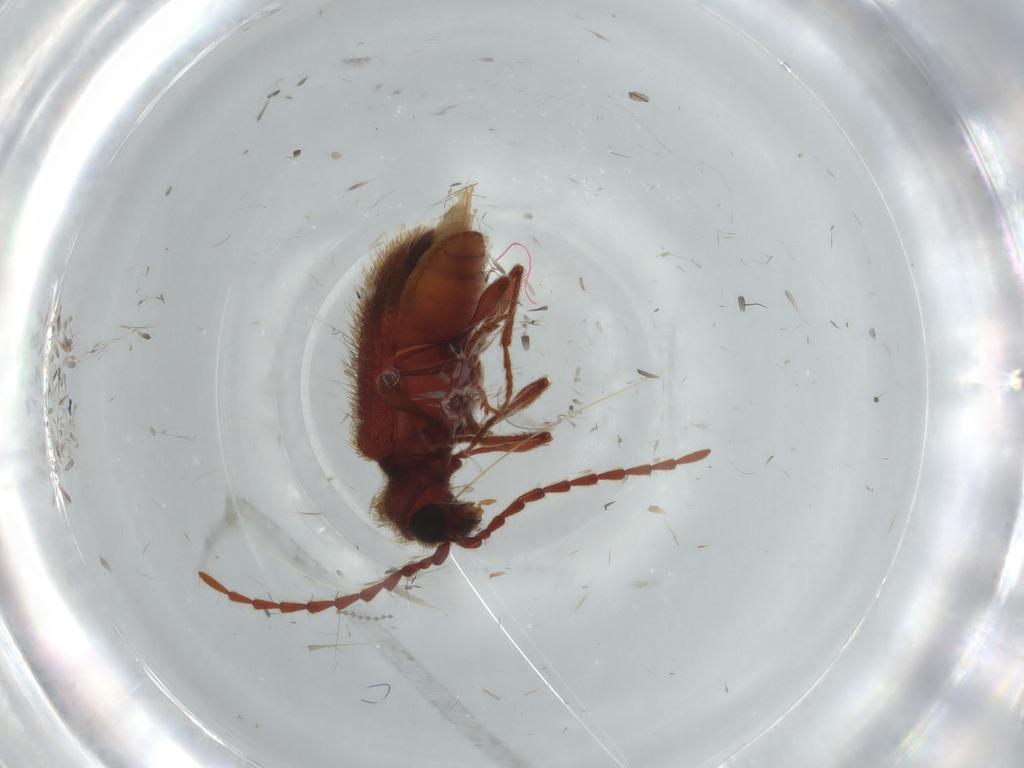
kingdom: Animalia
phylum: Arthropoda
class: Insecta
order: Coleoptera
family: Ptinidae
